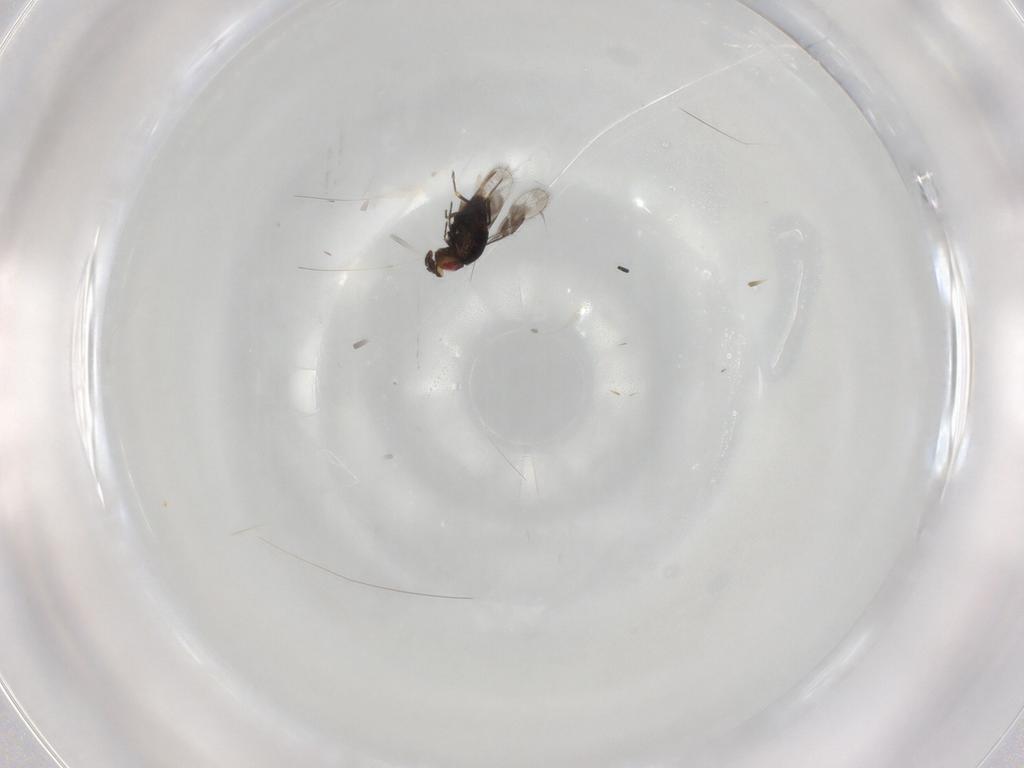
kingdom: Animalia
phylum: Arthropoda
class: Insecta
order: Hymenoptera
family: Eulophidae
